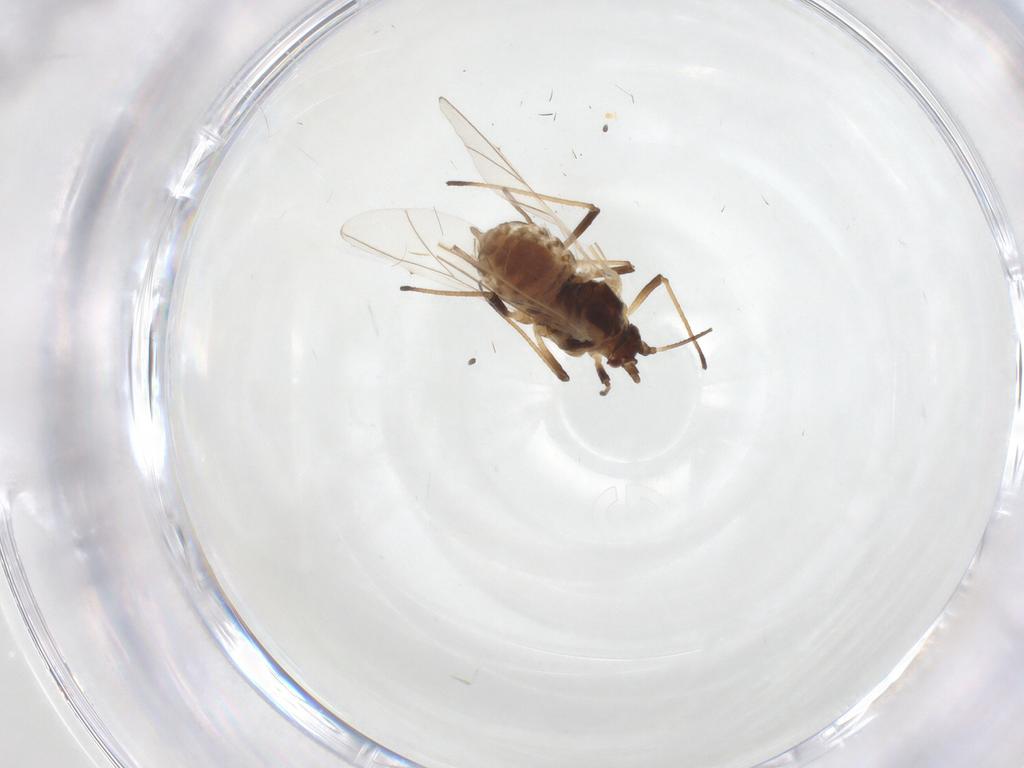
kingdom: Animalia
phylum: Arthropoda
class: Insecta
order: Hemiptera
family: Aphididae
